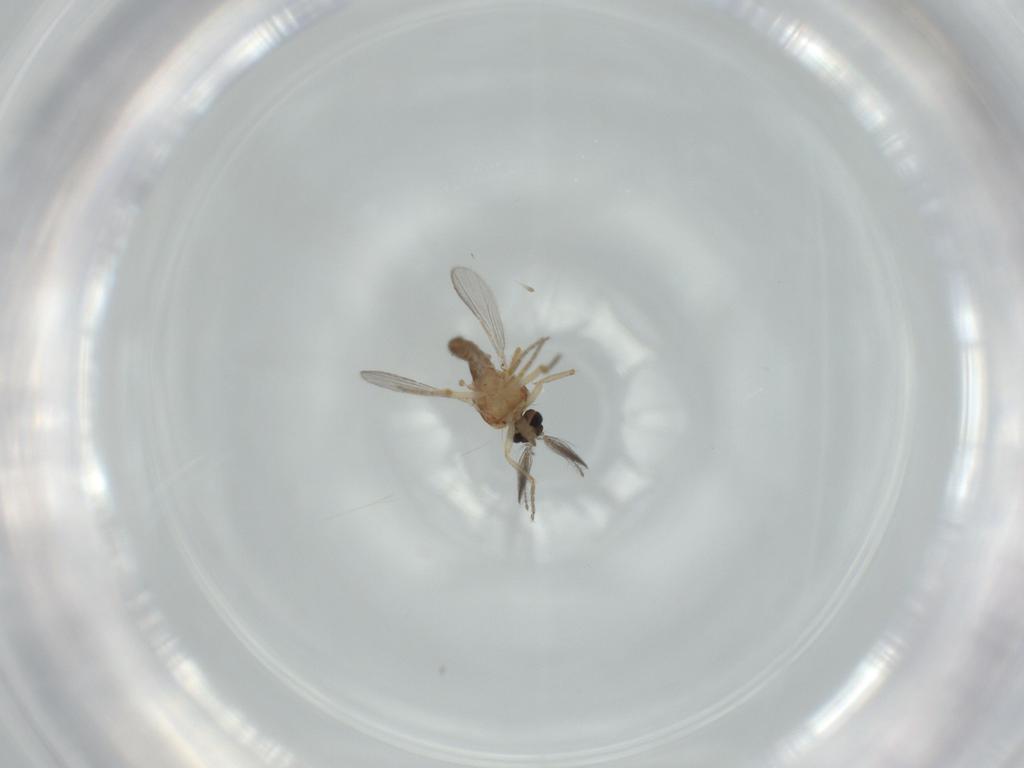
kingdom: Animalia
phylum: Arthropoda
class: Insecta
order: Diptera
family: Ceratopogonidae
